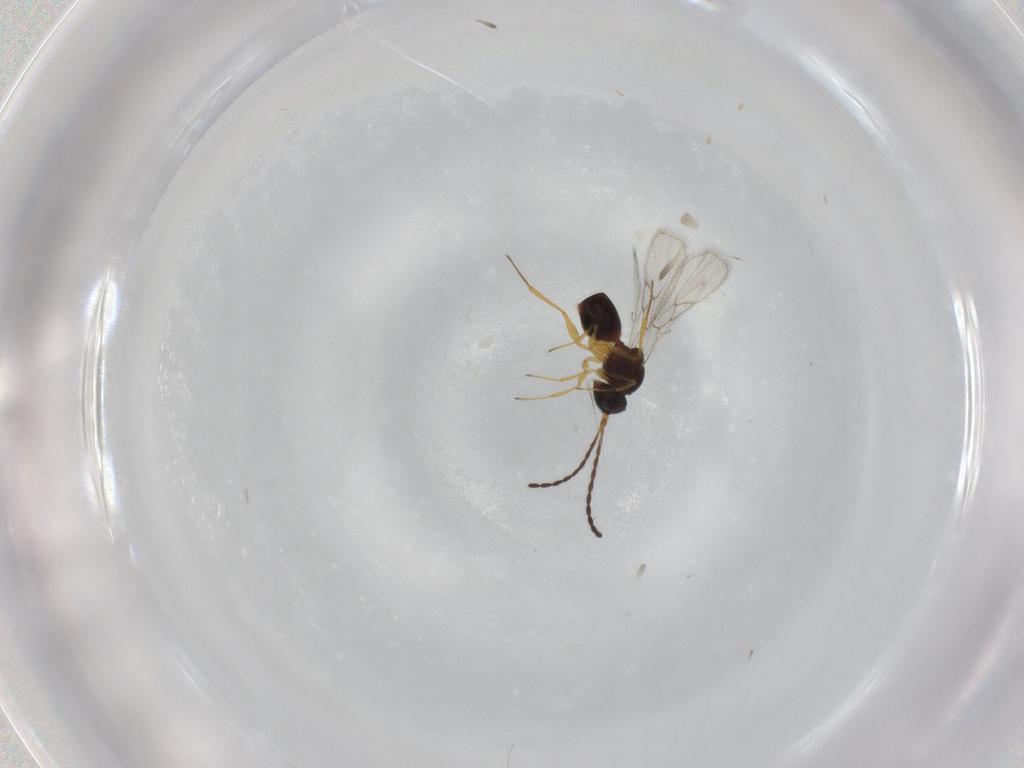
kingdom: Animalia
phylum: Arthropoda
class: Insecta
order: Hymenoptera
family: Figitidae
